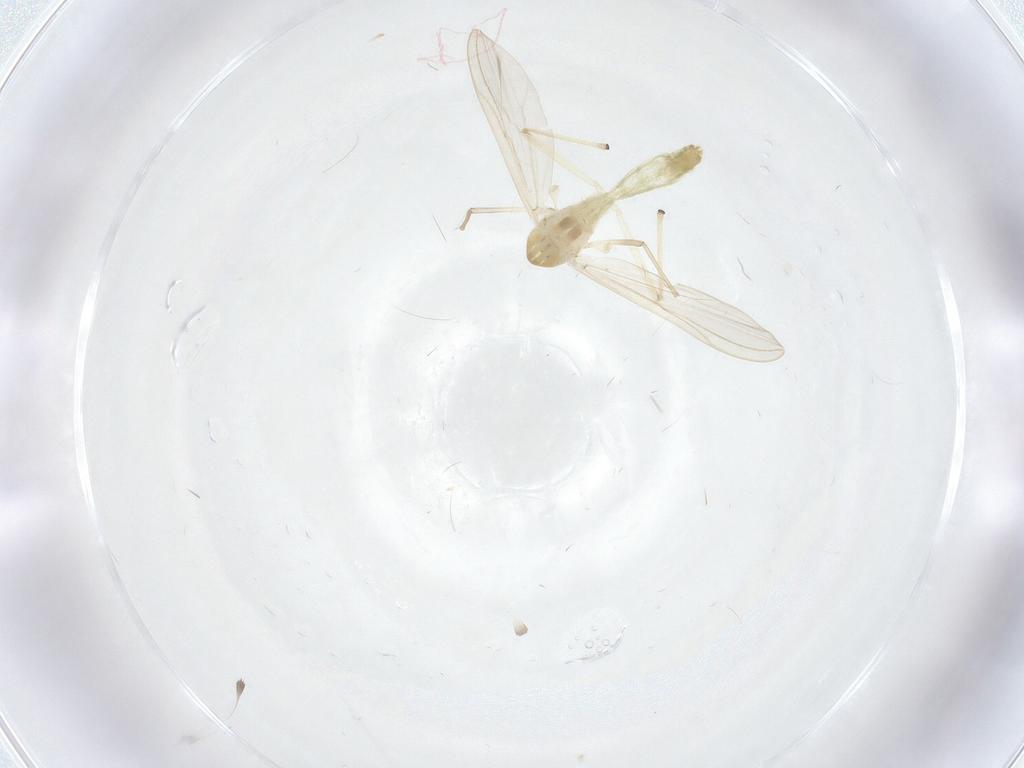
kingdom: Animalia
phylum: Arthropoda
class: Insecta
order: Diptera
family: Chironomidae
